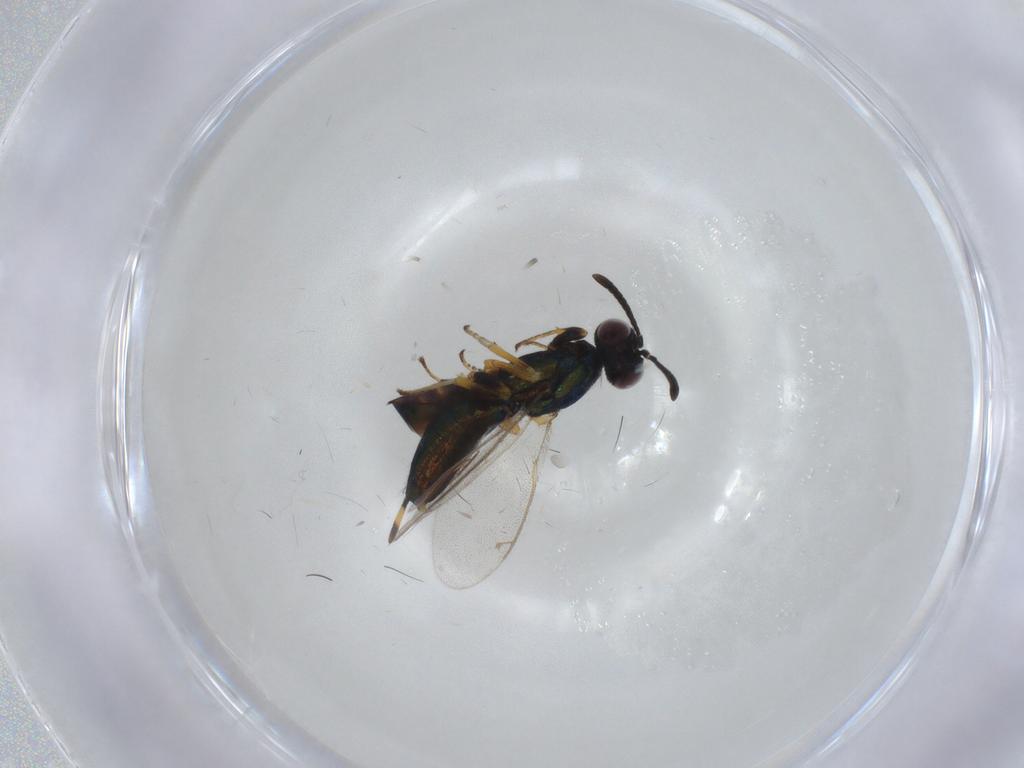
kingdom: Animalia
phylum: Arthropoda
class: Insecta
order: Hymenoptera
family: Eupelmidae
